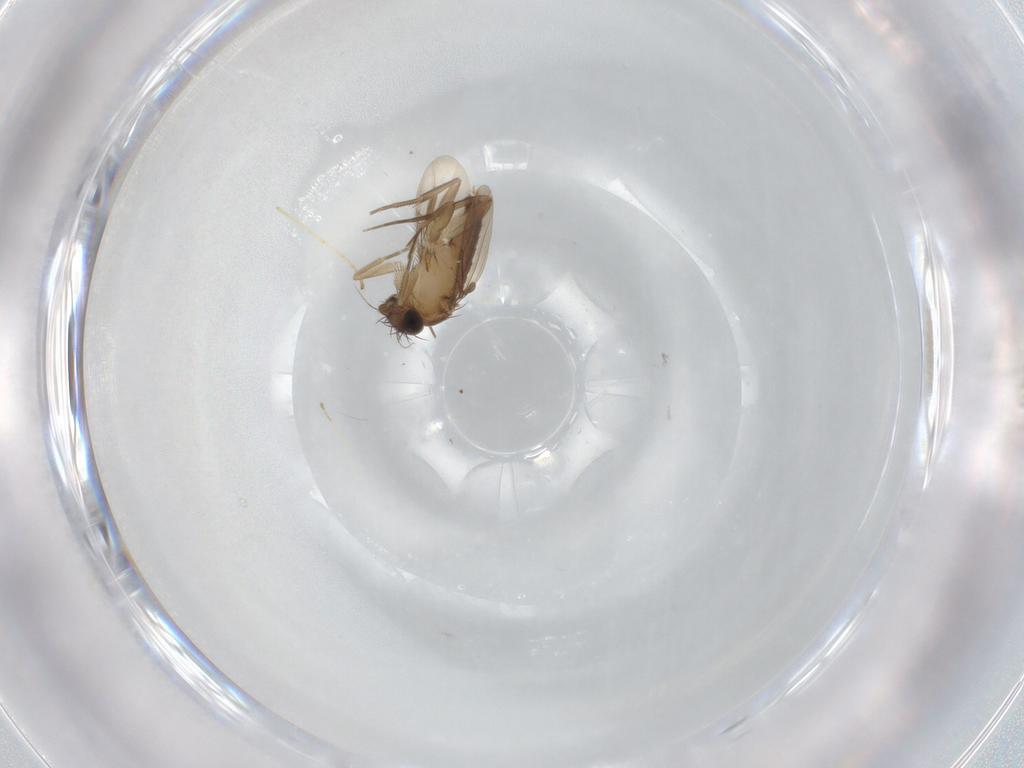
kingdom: Animalia
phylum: Arthropoda
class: Insecta
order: Diptera
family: Phoridae
